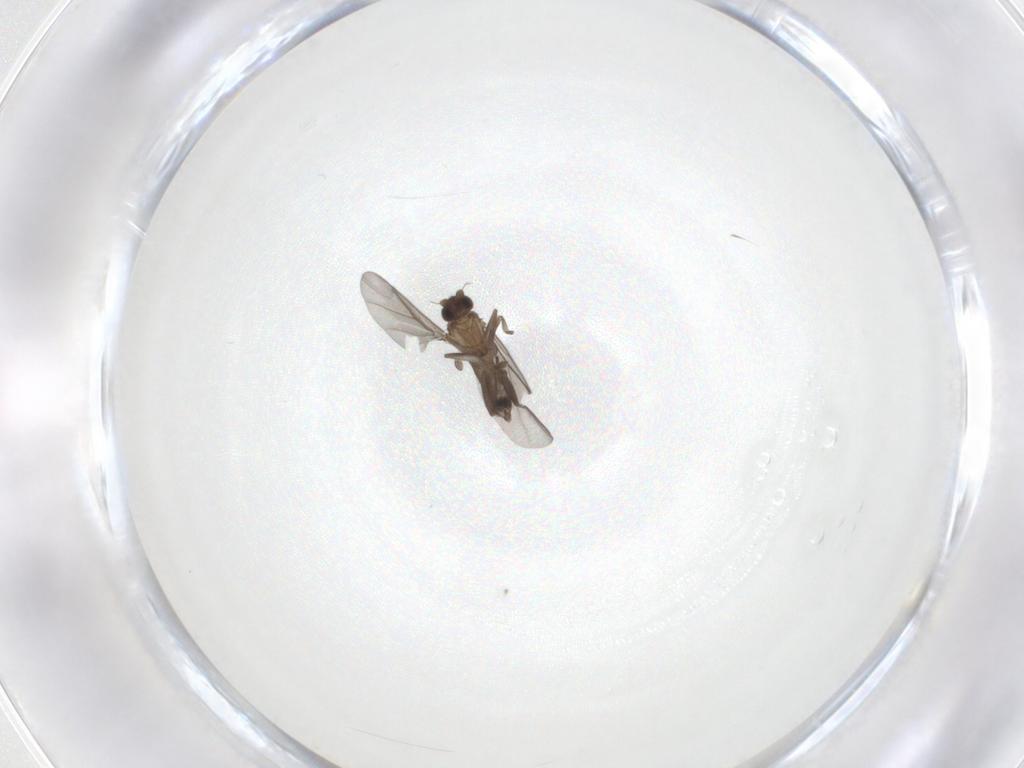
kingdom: Animalia
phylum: Arthropoda
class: Insecta
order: Diptera
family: Phoridae
